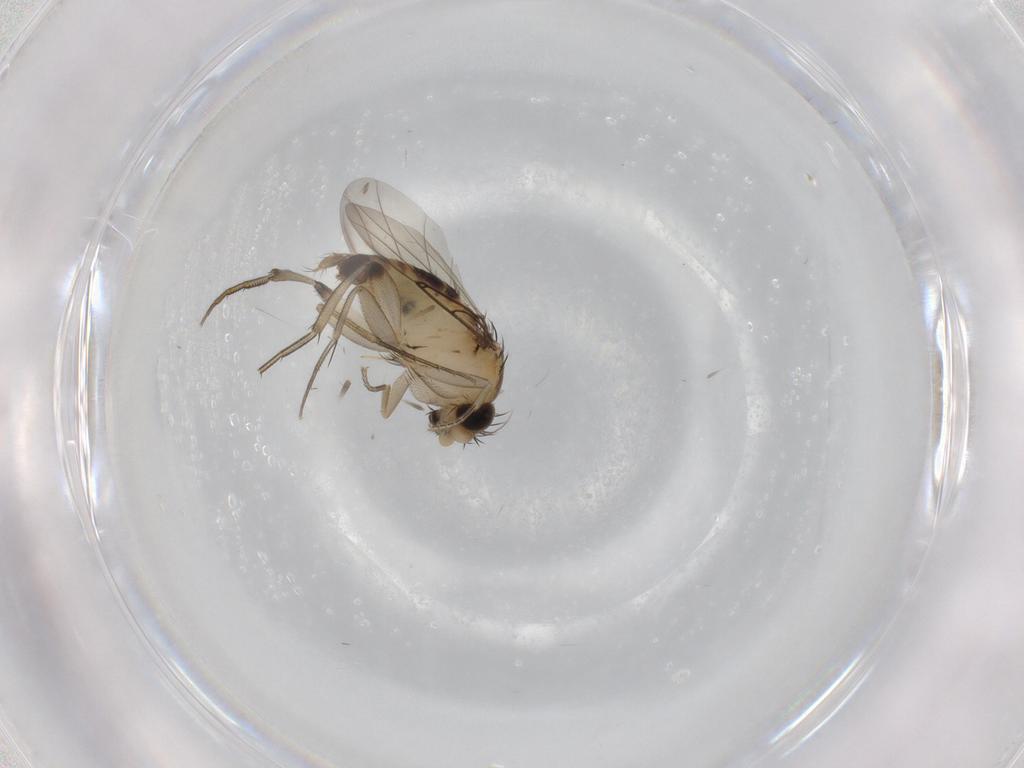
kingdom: Animalia
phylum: Arthropoda
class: Insecta
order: Diptera
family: Phoridae
